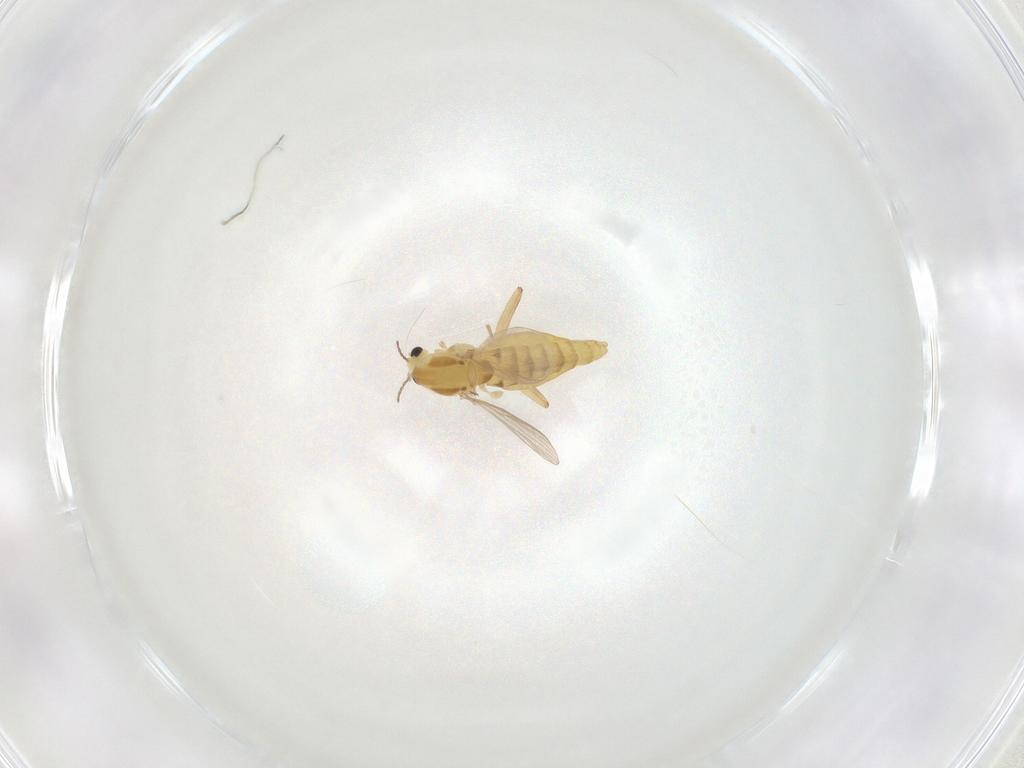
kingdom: Animalia
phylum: Arthropoda
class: Insecta
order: Diptera
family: Chironomidae
